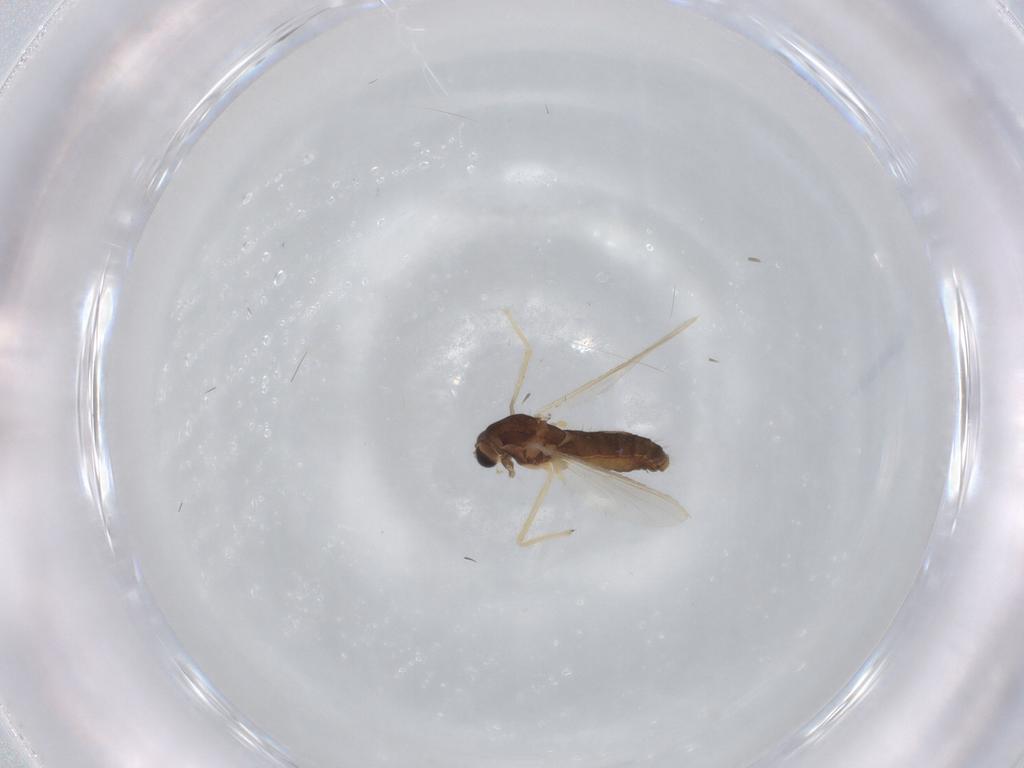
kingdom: Animalia
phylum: Arthropoda
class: Insecta
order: Diptera
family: Chironomidae
